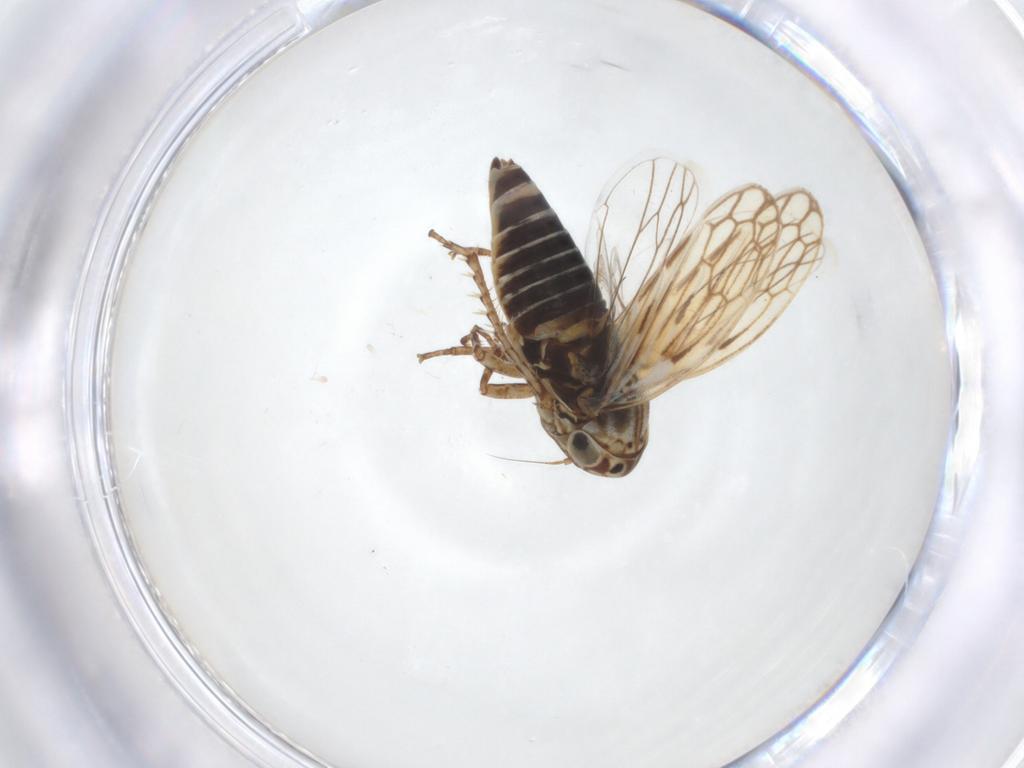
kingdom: Animalia
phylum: Arthropoda
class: Insecta
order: Hemiptera
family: Cicadellidae
